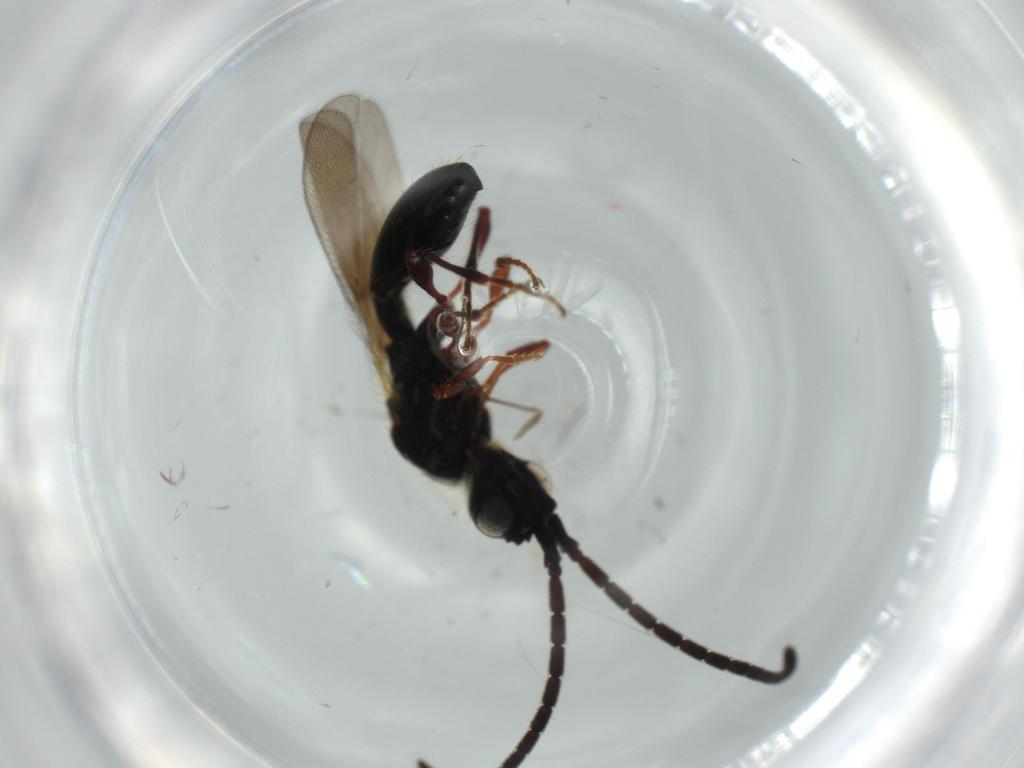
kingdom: Animalia
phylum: Arthropoda
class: Insecta
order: Hymenoptera
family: Diapriidae
